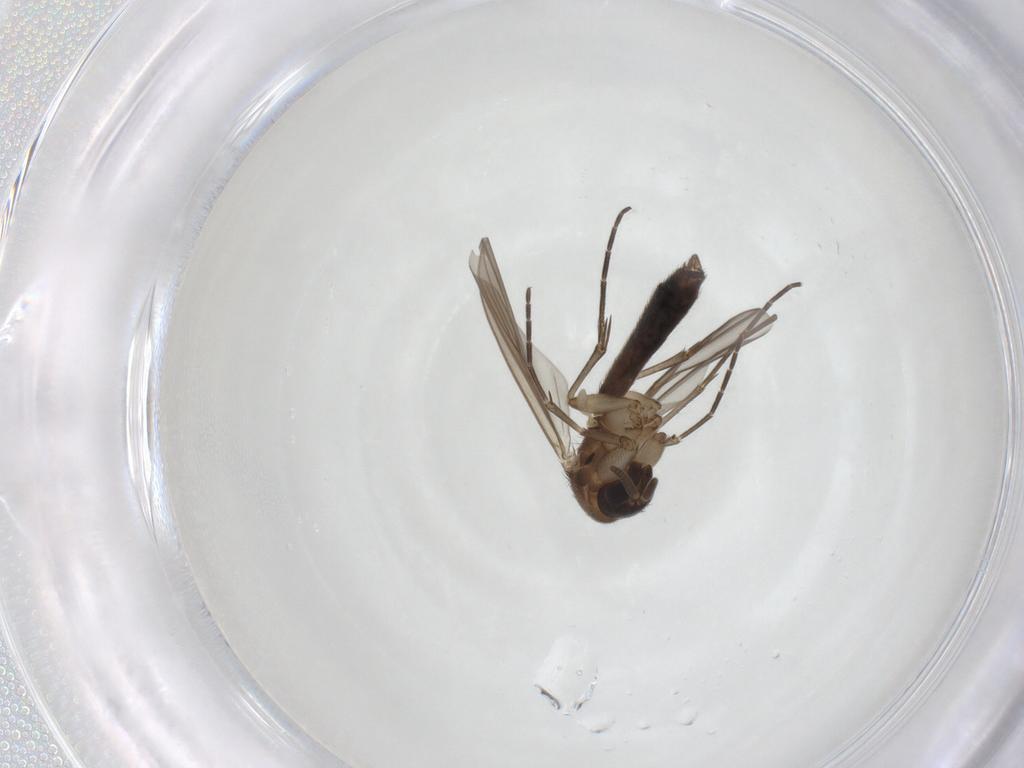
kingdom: Animalia
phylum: Arthropoda
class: Insecta
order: Diptera
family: Mycetophilidae
